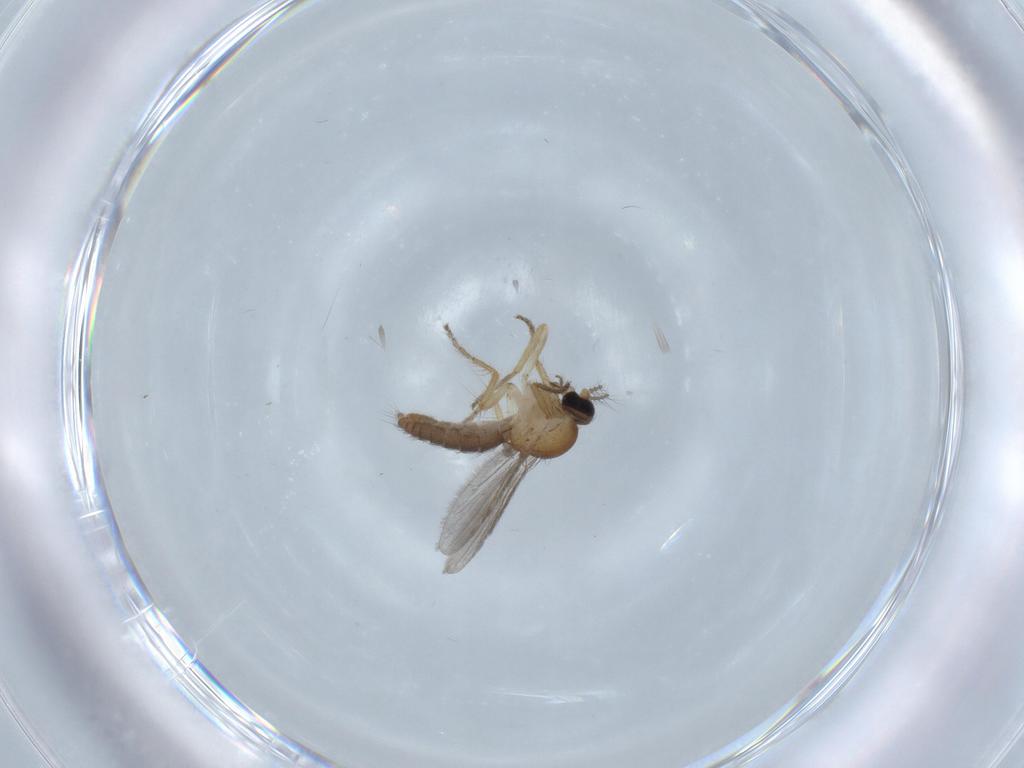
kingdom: Animalia
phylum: Arthropoda
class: Insecta
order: Diptera
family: Ceratopogonidae
